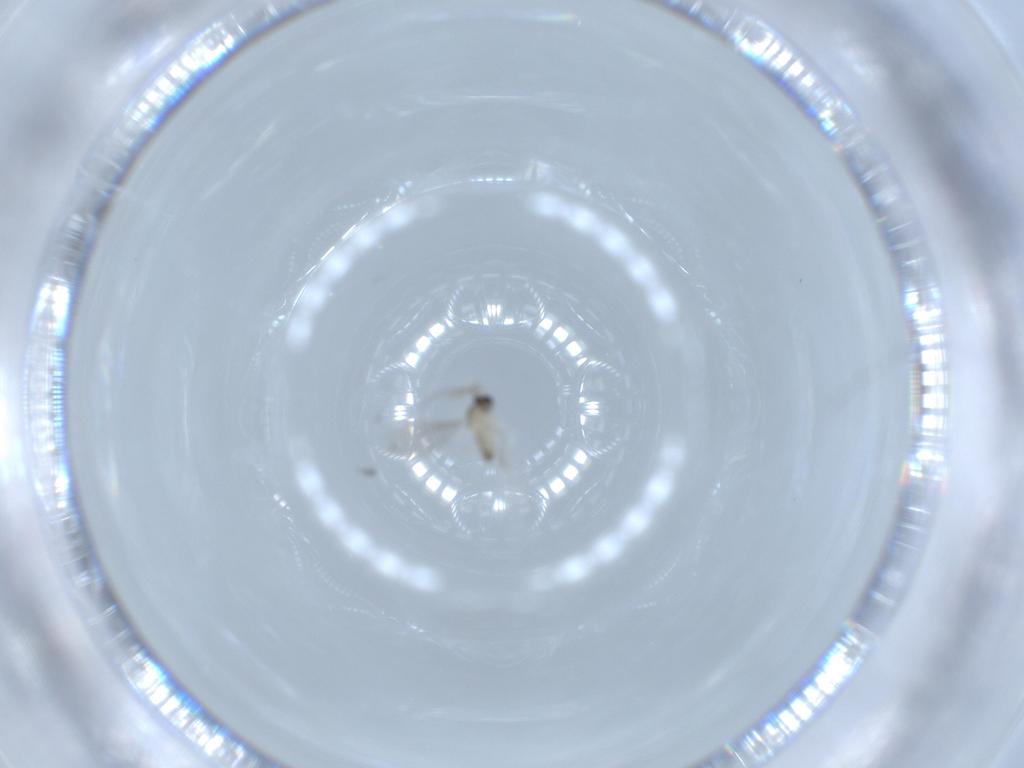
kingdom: Animalia
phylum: Arthropoda
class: Insecta
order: Diptera
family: Cecidomyiidae
